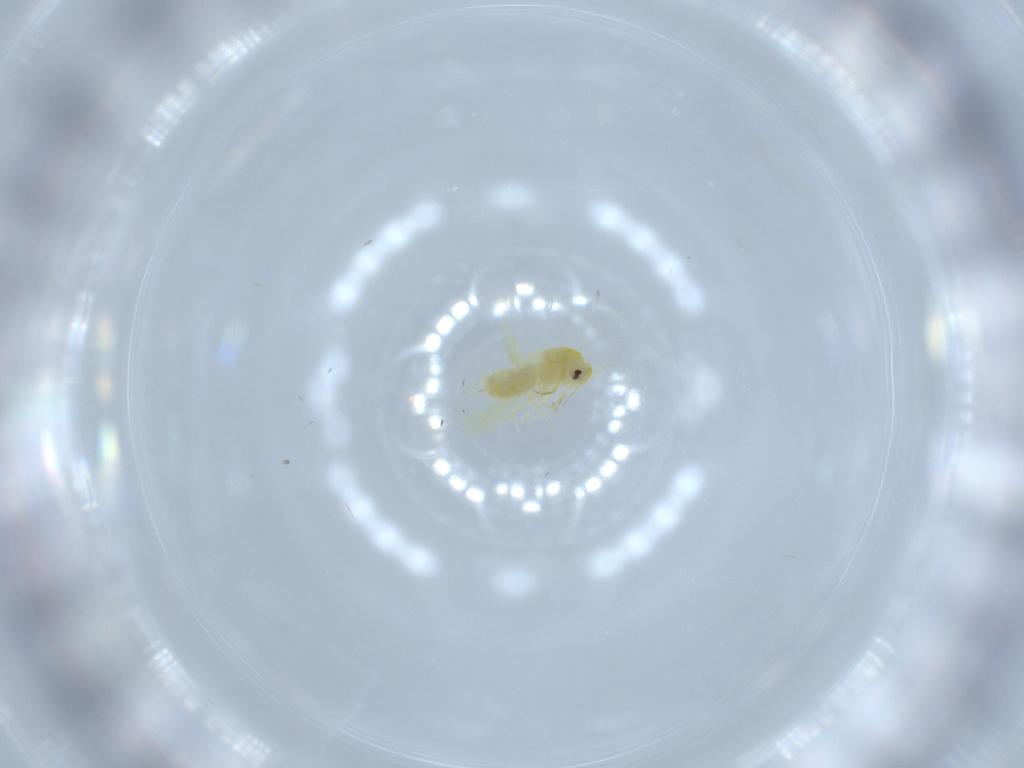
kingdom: Animalia
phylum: Arthropoda
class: Insecta
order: Hemiptera
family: Aleyrodidae
